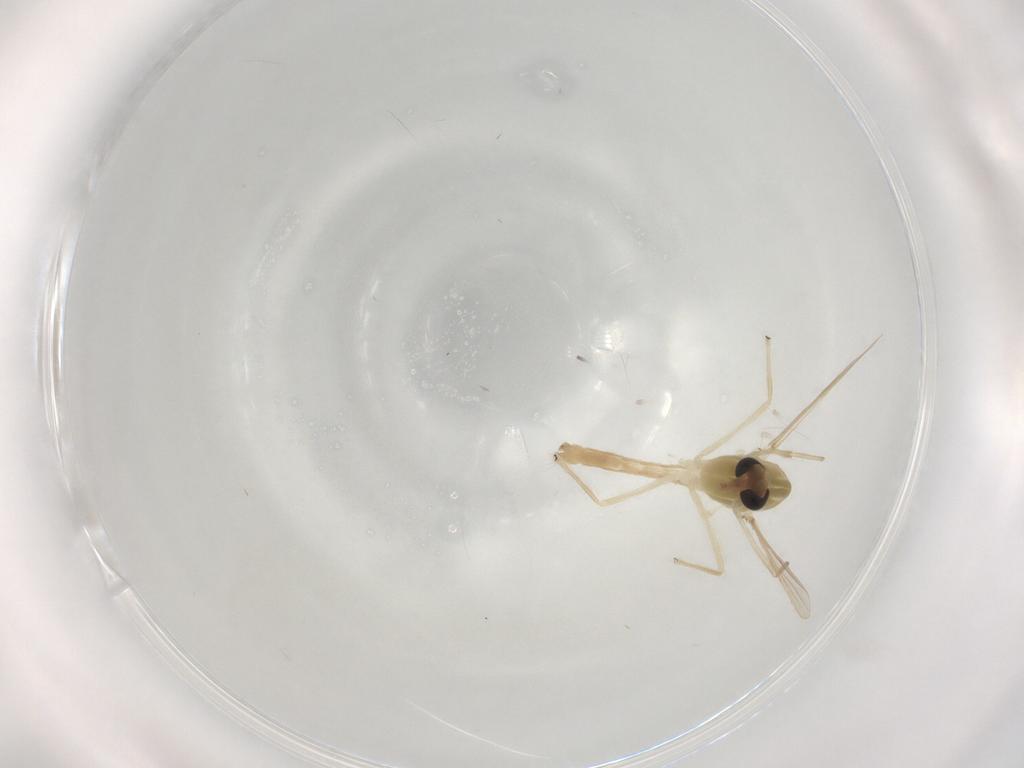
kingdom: Animalia
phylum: Arthropoda
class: Insecta
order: Diptera
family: Chironomidae
